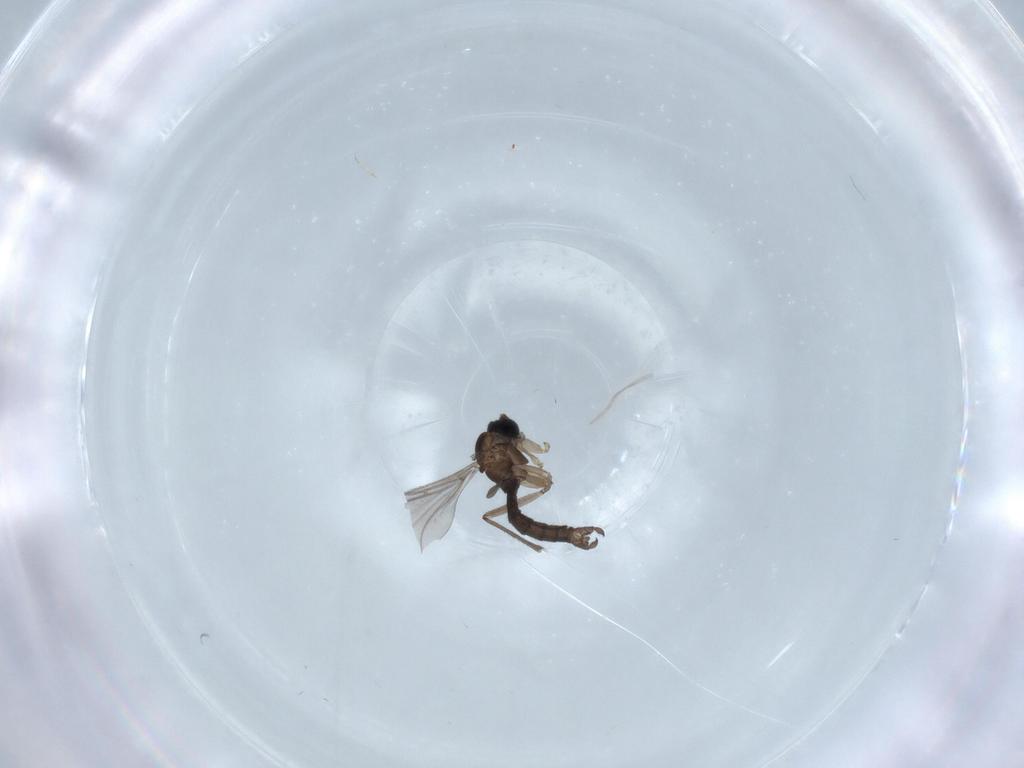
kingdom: Animalia
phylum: Arthropoda
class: Insecta
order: Diptera
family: Sciaridae
